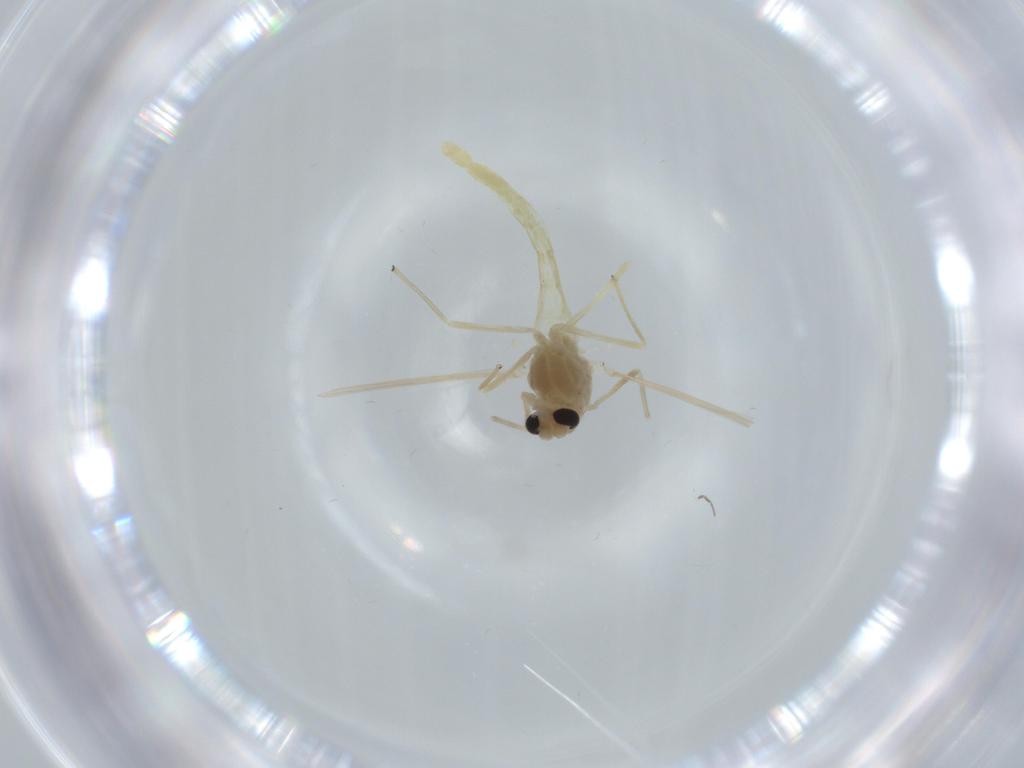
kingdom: Animalia
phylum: Arthropoda
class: Insecta
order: Diptera
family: Chironomidae
